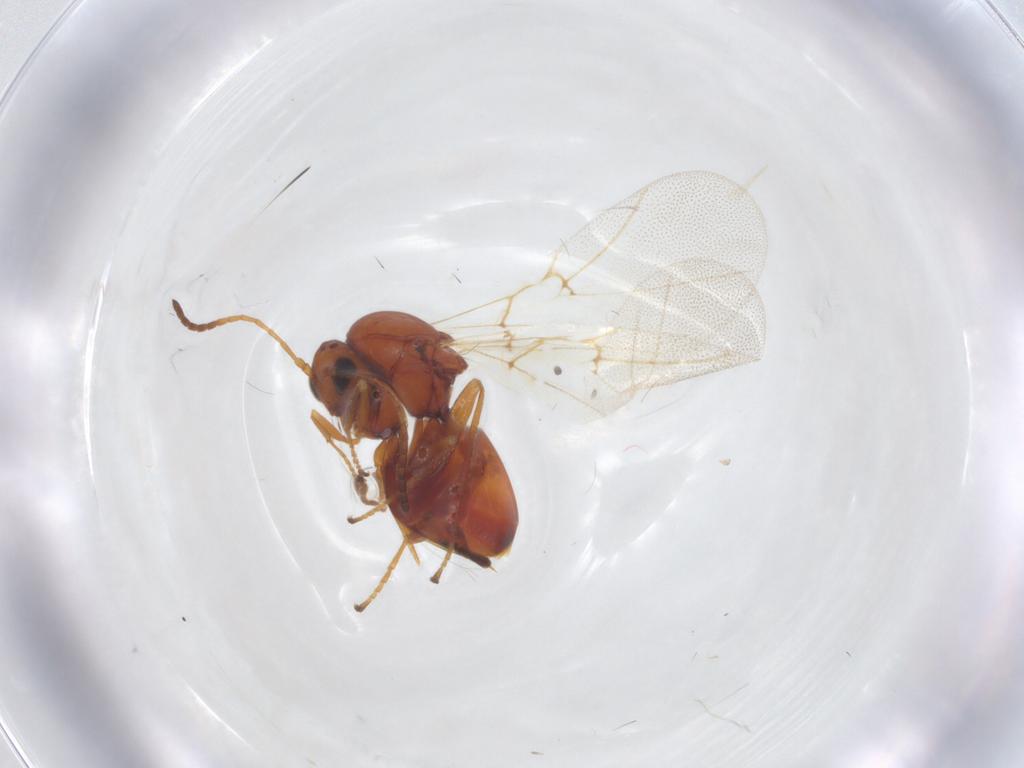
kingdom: Animalia
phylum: Arthropoda
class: Insecta
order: Hymenoptera
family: Cynipidae
